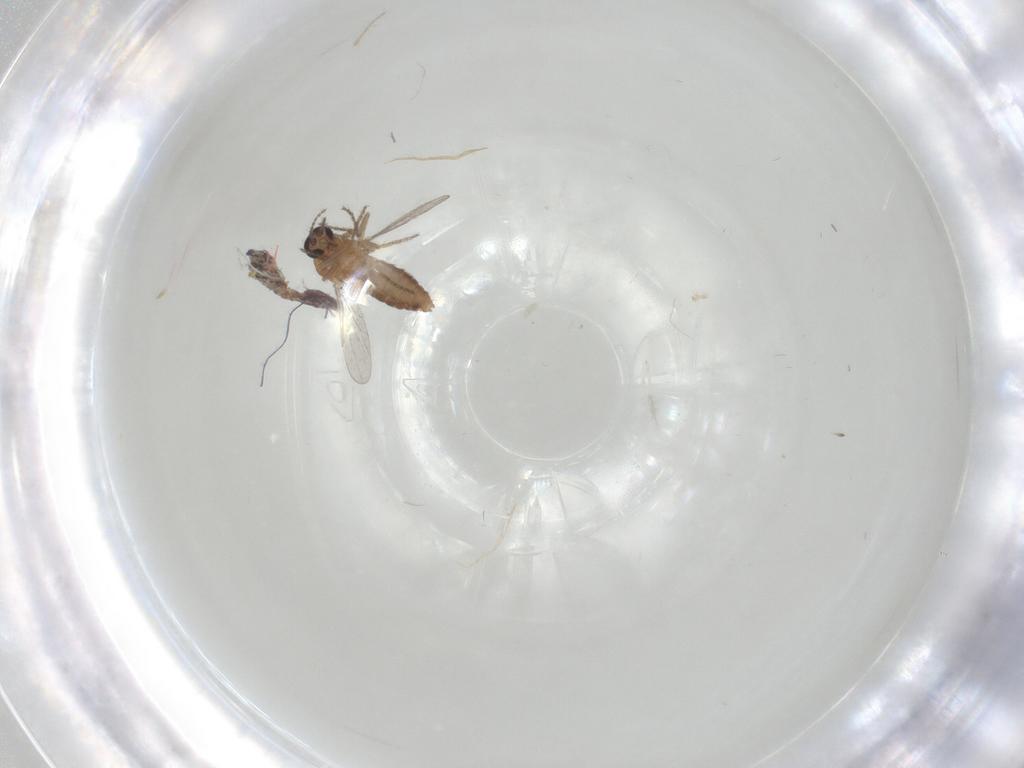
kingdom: Animalia
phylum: Arthropoda
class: Insecta
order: Diptera
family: Ceratopogonidae
